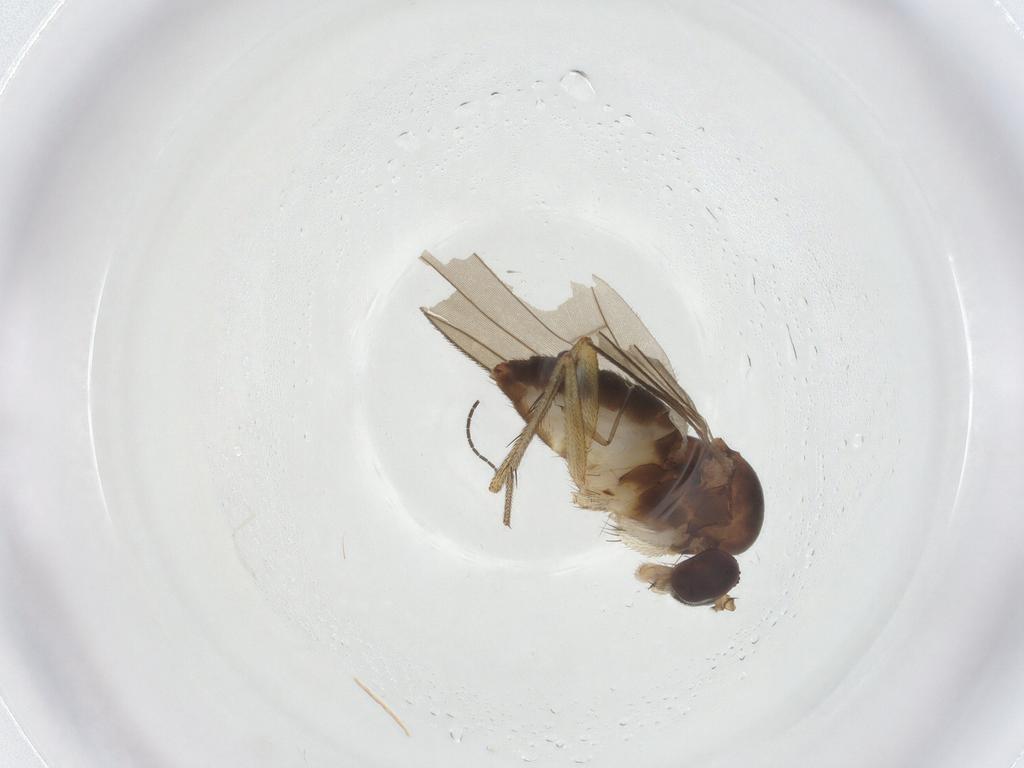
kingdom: Animalia
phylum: Arthropoda
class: Insecta
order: Diptera
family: Dolichopodidae
